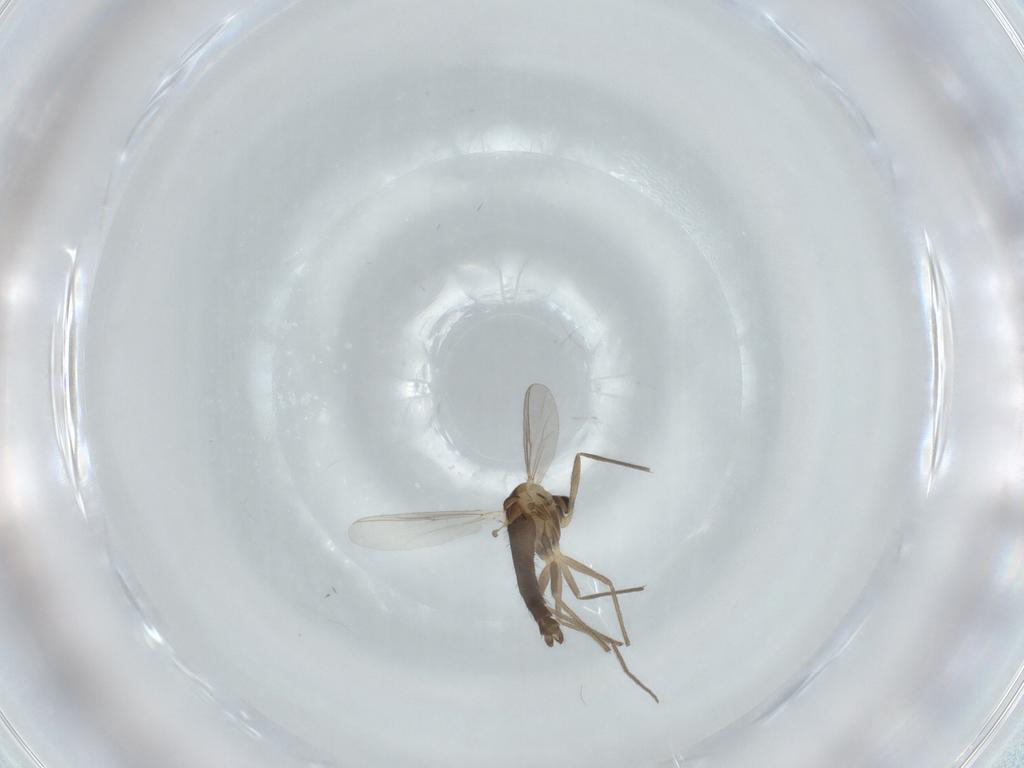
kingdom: Animalia
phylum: Arthropoda
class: Insecta
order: Diptera
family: Chironomidae
